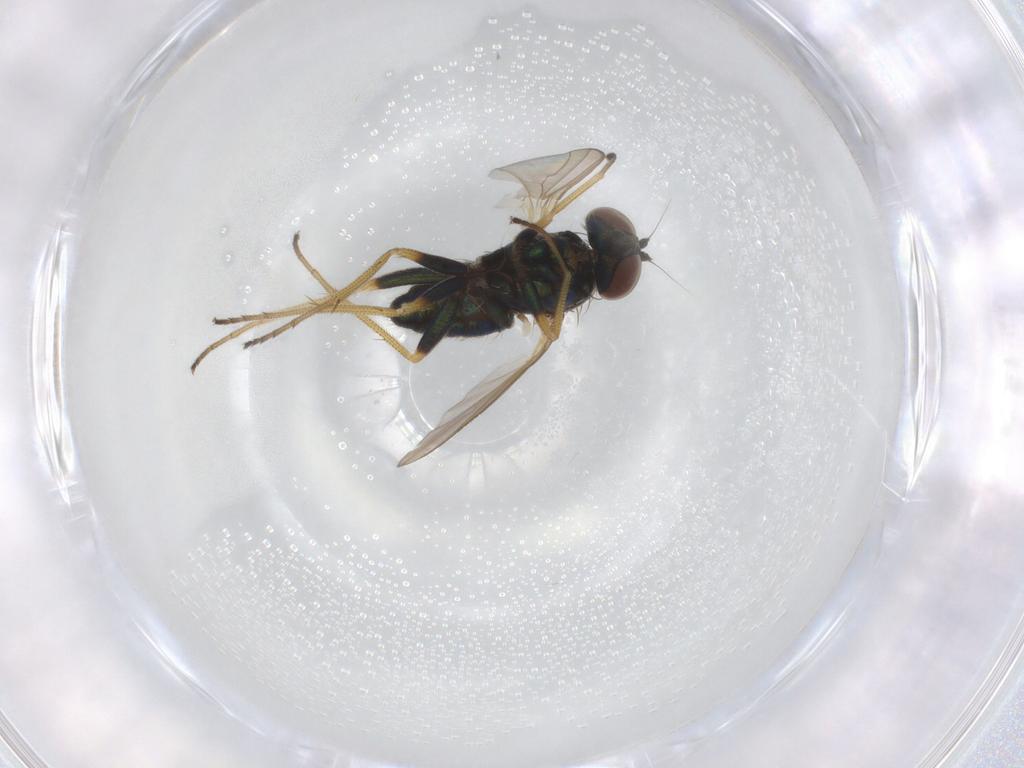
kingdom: Animalia
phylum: Arthropoda
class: Insecta
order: Diptera
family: Dolichopodidae
